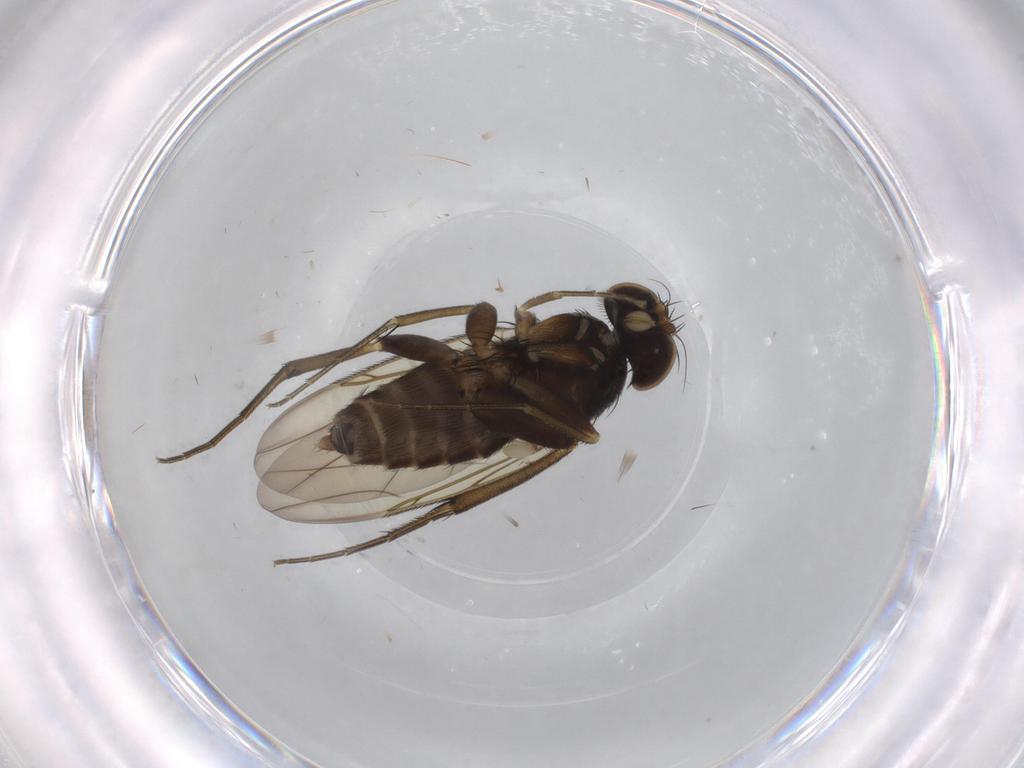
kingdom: Animalia
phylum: Arthropoda
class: Insecta
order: Diptera
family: Phoridae
